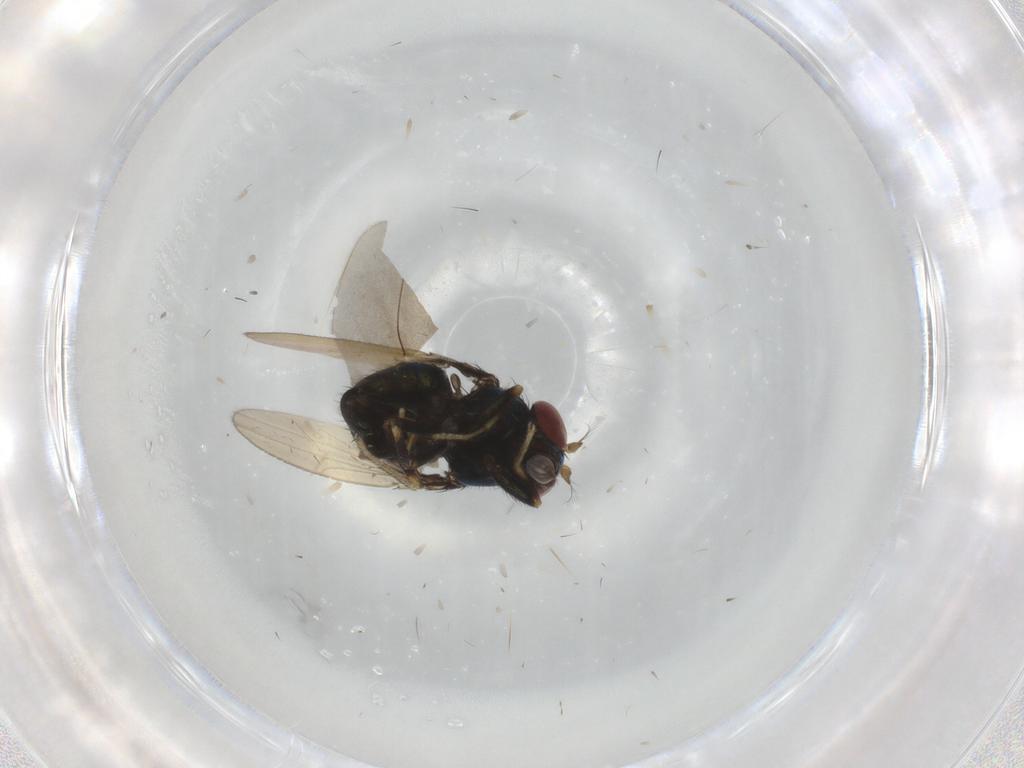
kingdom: Animalia
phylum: Arthropoda
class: Insecta
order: Diptera
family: Ephydridae
